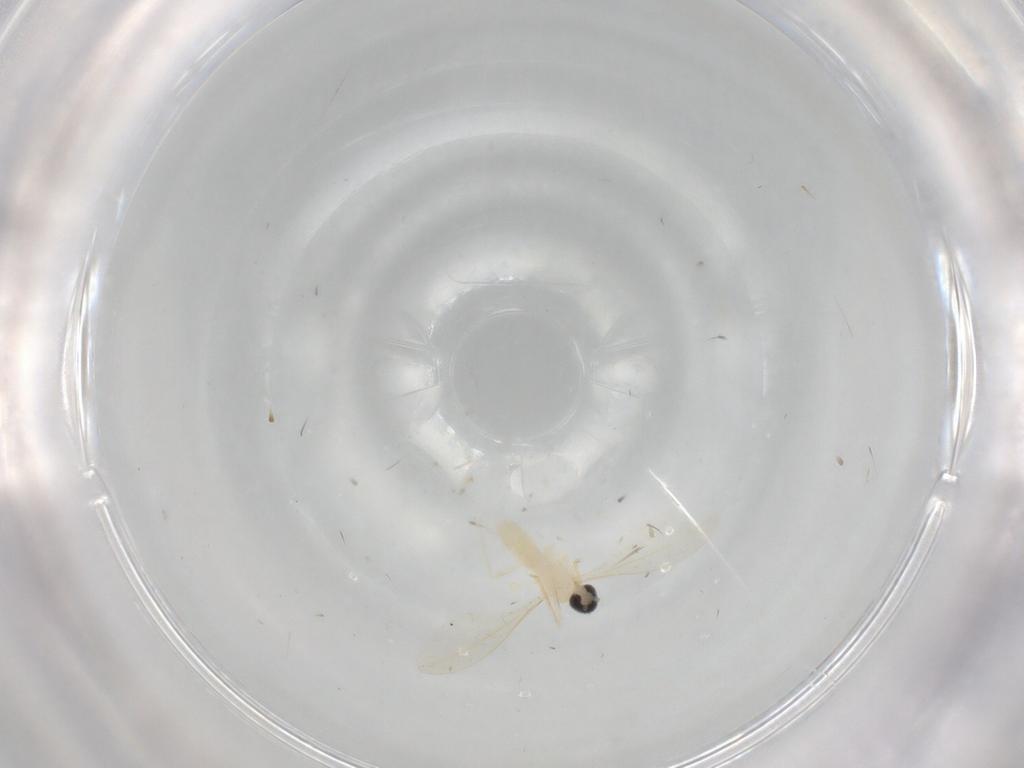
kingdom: Animalia
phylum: Arthropoda
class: Insecta
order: Diptera
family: Cecidomyiidae
